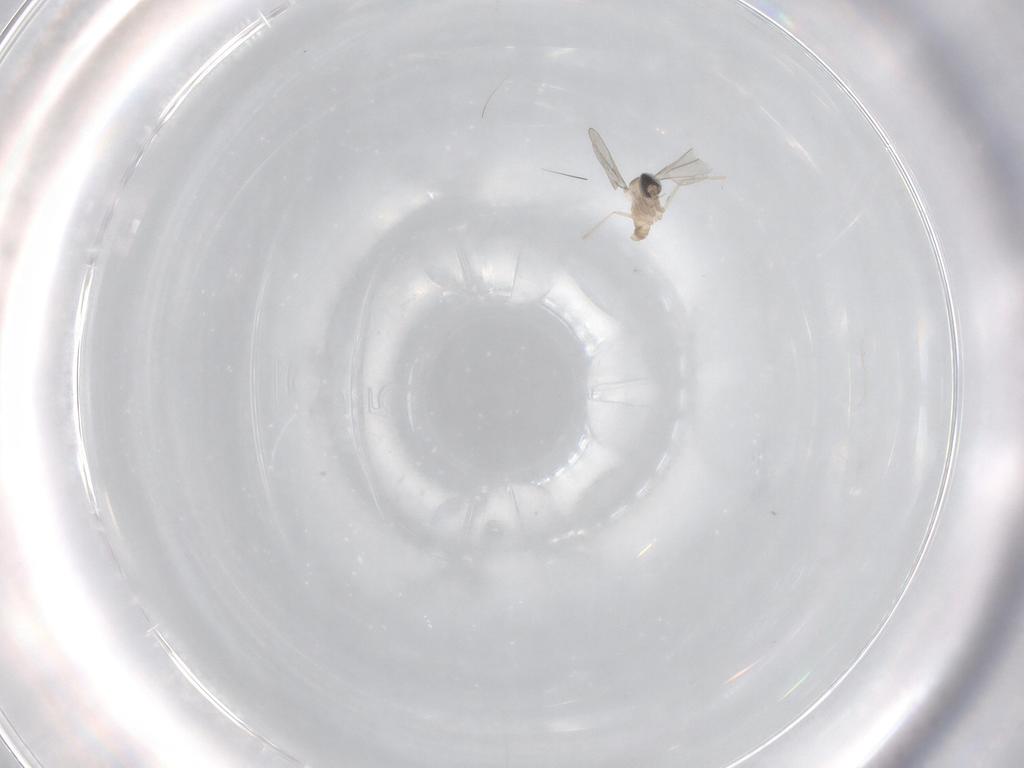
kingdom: Animalia
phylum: Arthropoda
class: Insecta
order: Diptera
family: Cecidomyiidae
